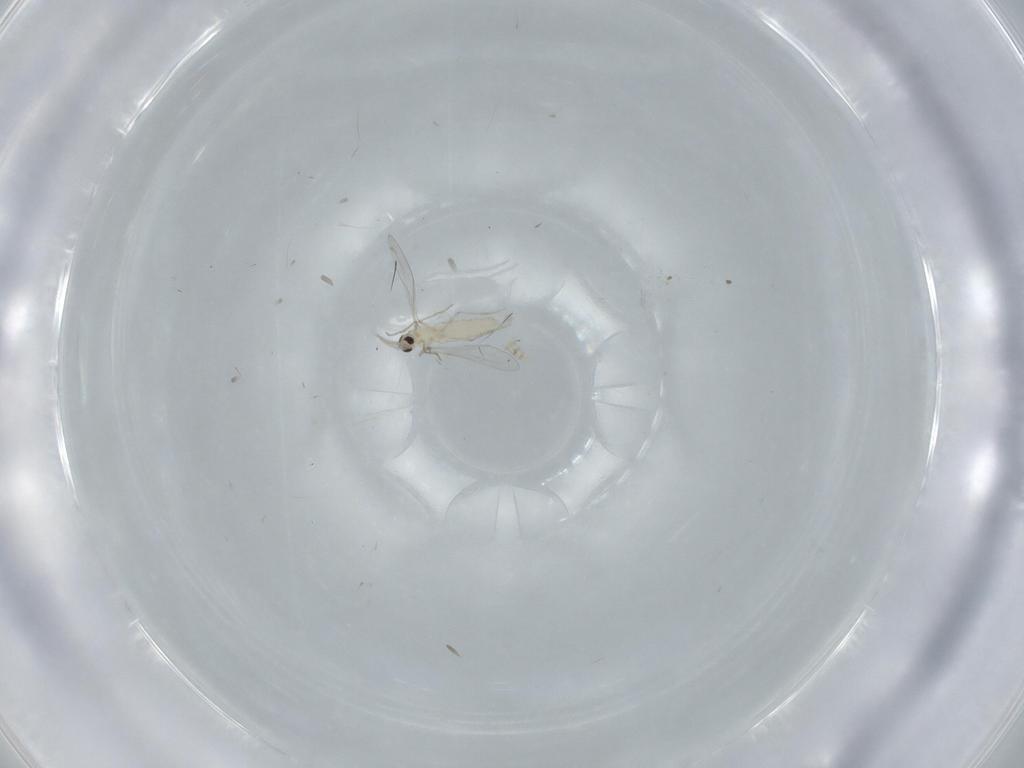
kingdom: Animalia
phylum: Arthropoda
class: Insecta
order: Diptera
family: Cecidomyiidae
